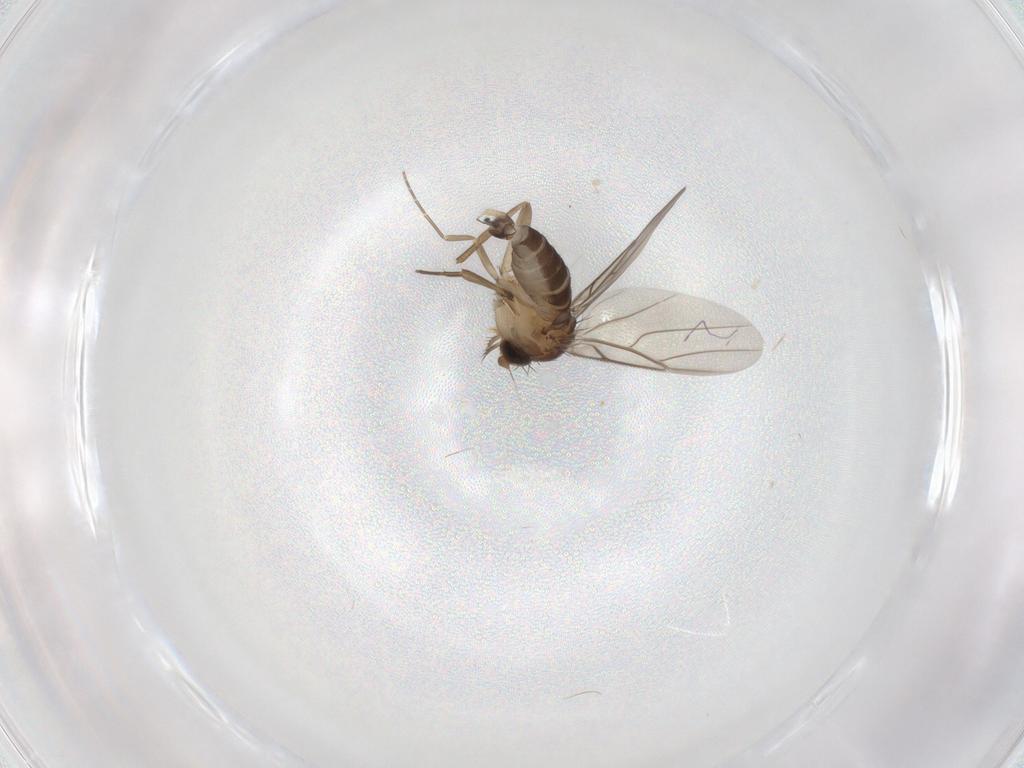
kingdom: Animalia
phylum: Arthropoda
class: Insecta
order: Diptera
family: Phoridae
